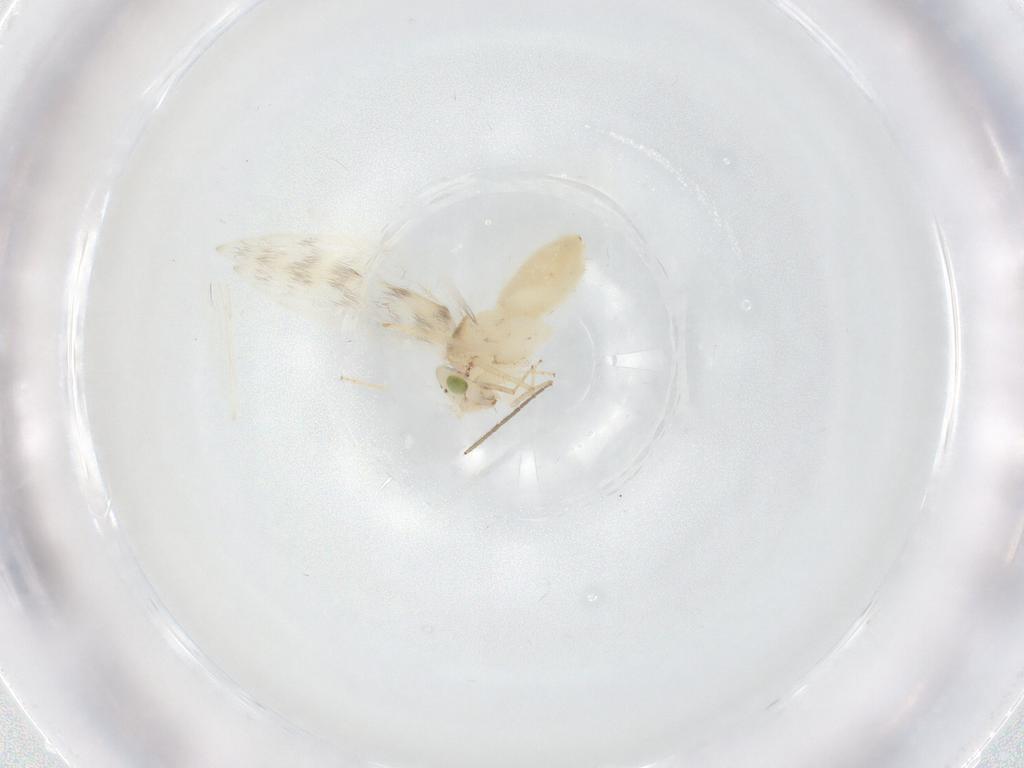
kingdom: Animalia
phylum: Arthropoda
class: Insecta
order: Psocodea
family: Lepidopsocidae
